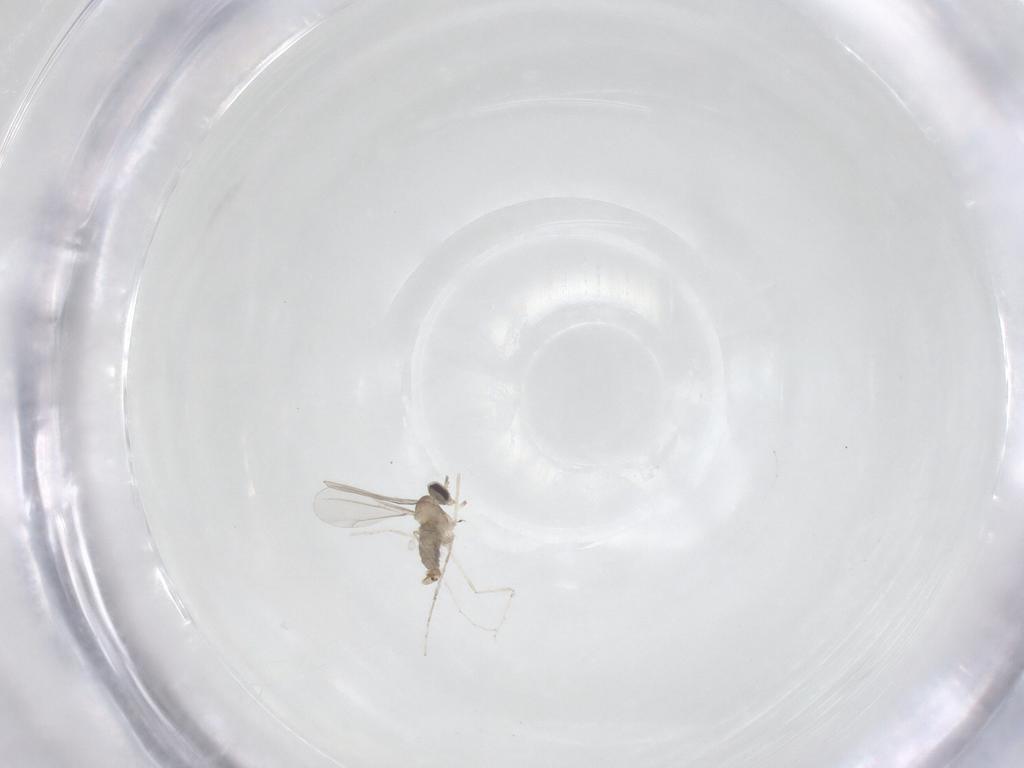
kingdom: Animalia
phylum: Arthropoda
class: Insecta
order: Diptera
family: Cecidomyiidae
